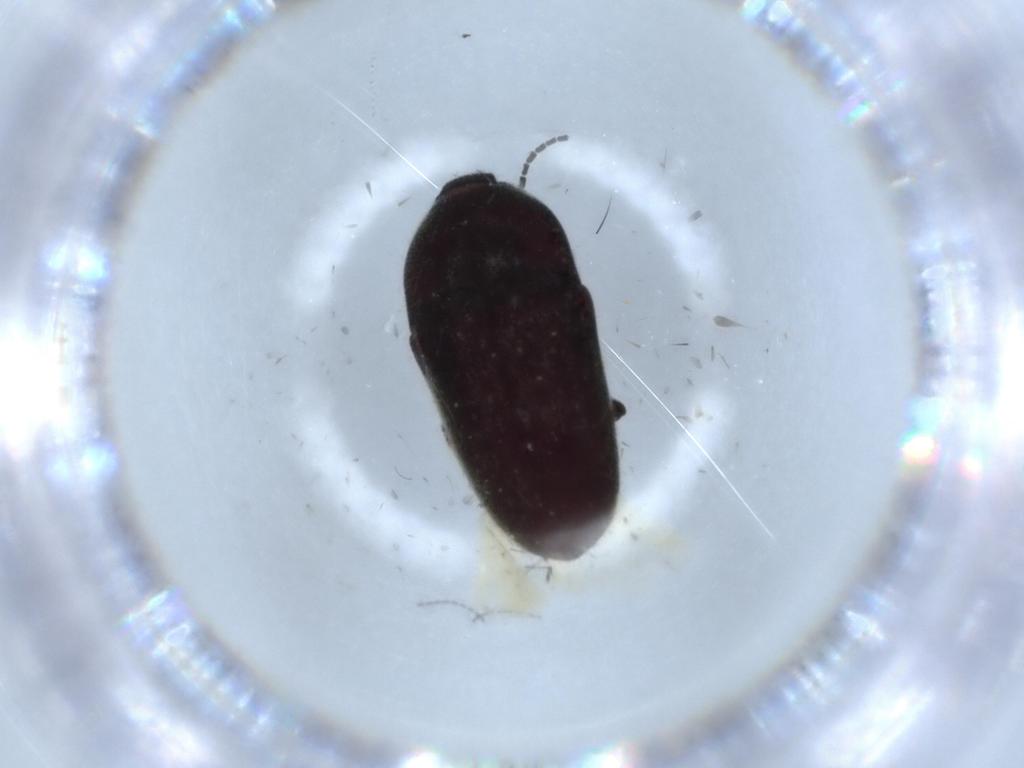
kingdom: Animalia
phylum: Arthropoda
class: Insecta
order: Coleoptera
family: Throscidae
